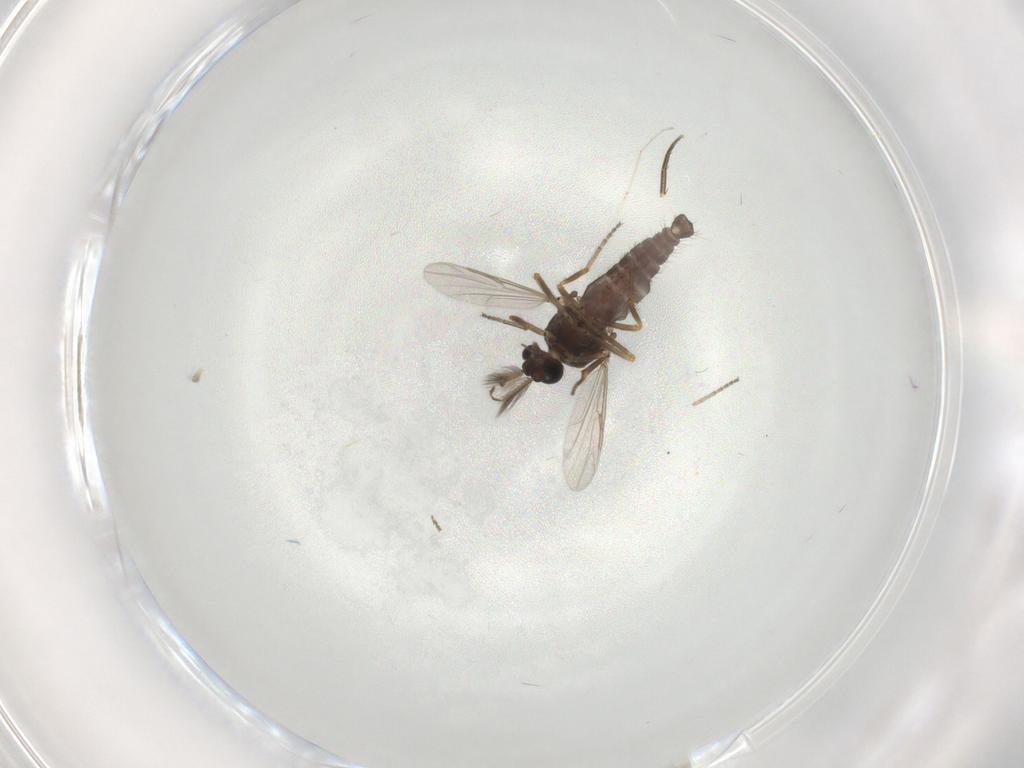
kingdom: Animalia
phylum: Arthropoda
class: Insecta
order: Diptera
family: Ceratopogonidae
